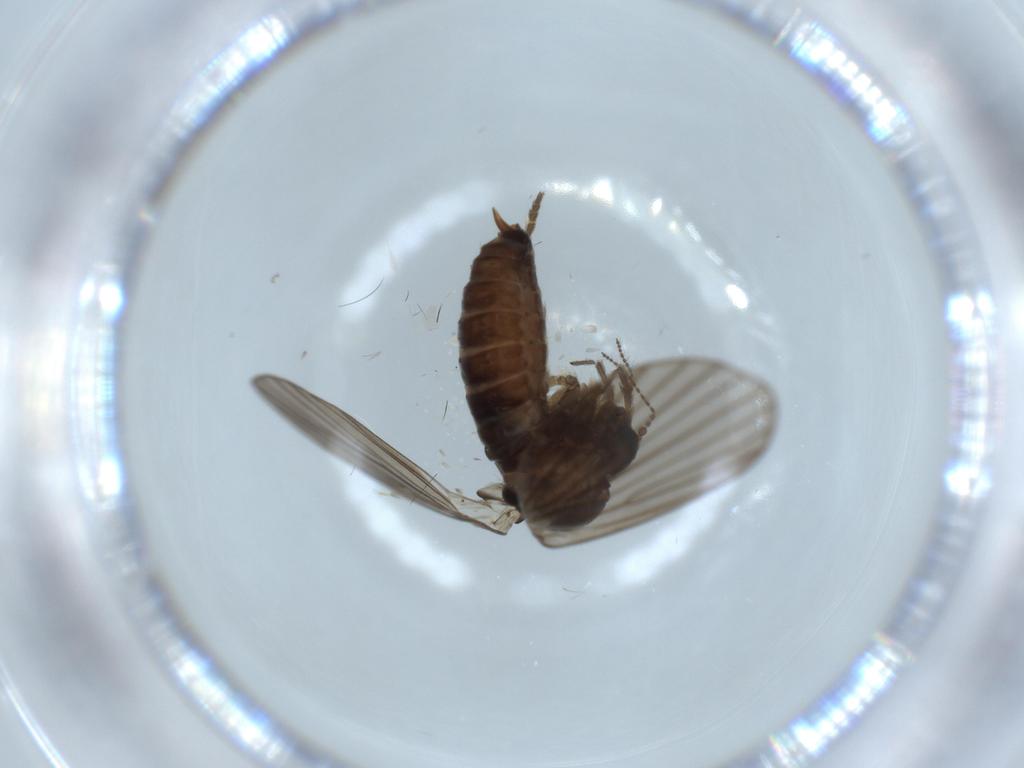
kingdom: Animalia
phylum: Arthropoda
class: Insecta
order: Diptera
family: Psychodidae
